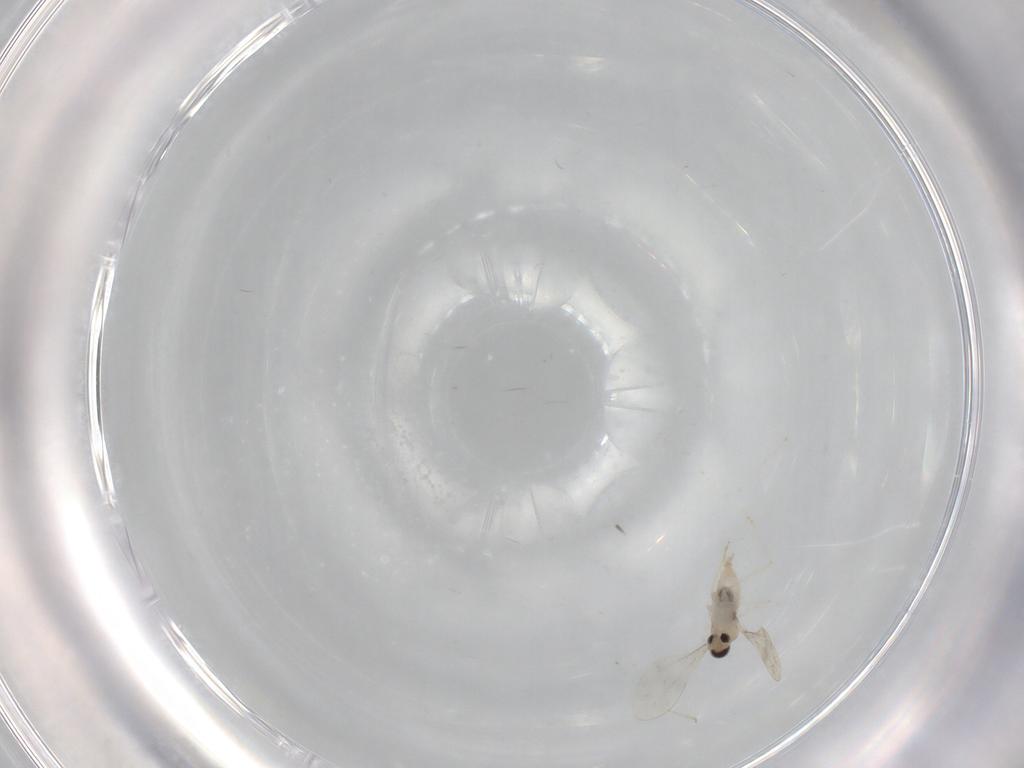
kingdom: Animalia
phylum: Arthropoda
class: Insecta
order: Diptera
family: Cecidomyiidae
